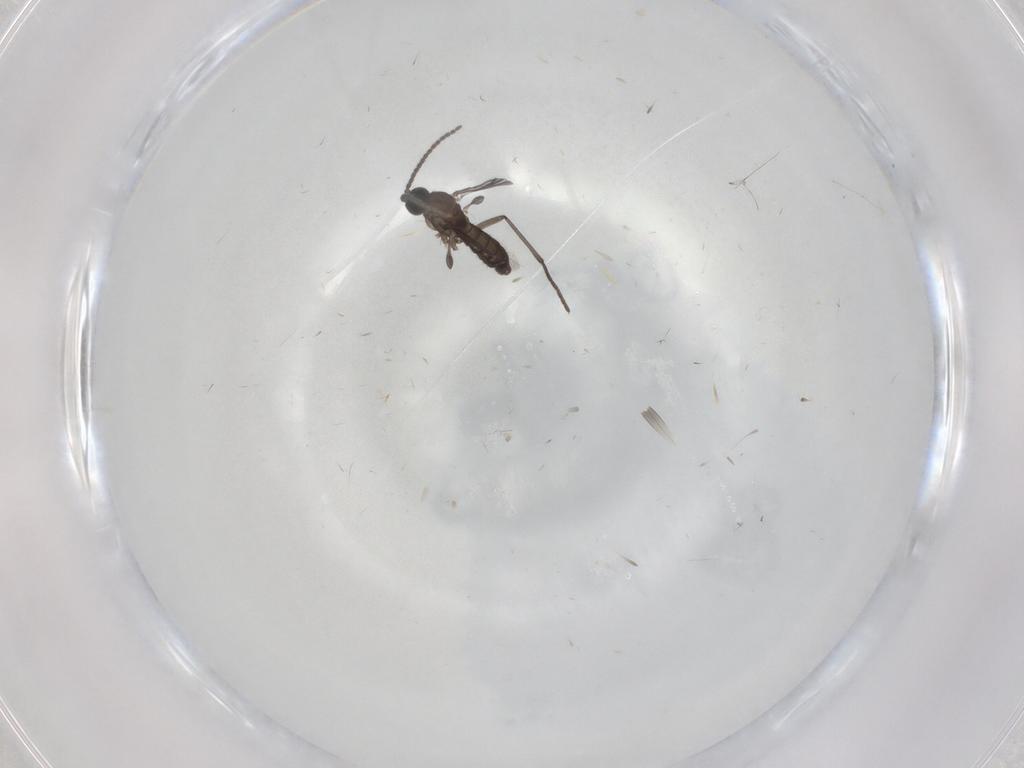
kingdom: Animalia
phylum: Arthropoda
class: Insecta
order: Diptera
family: Sciaridae
